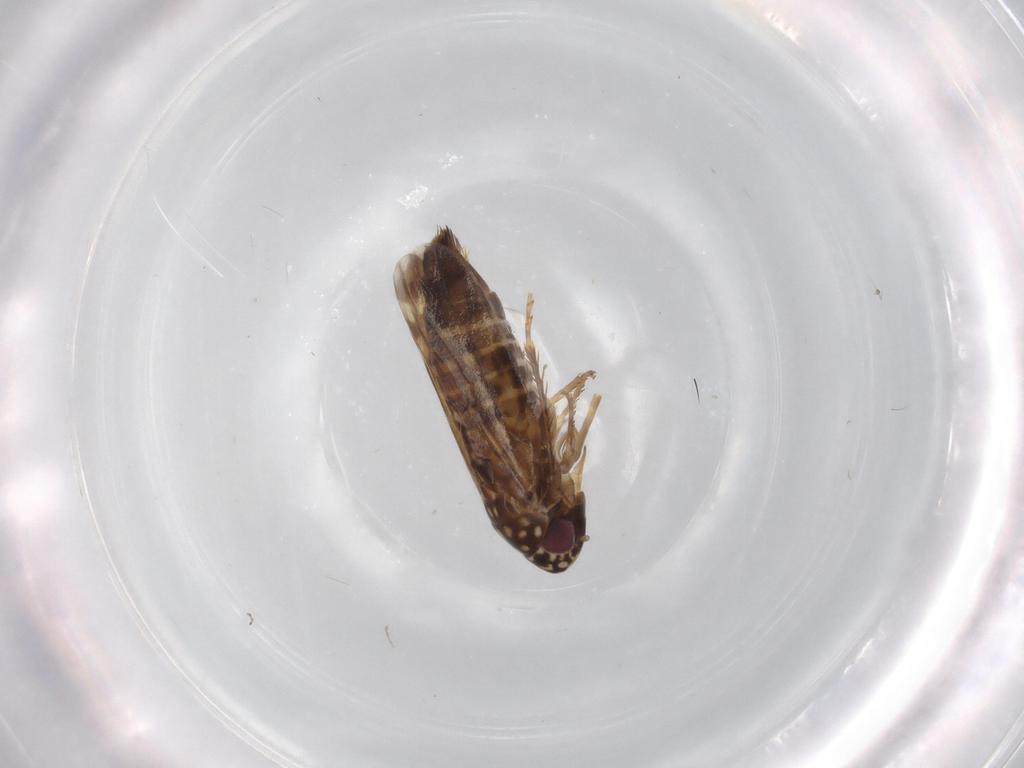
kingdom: Animalia
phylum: Arthropoda
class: Insecta
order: Hemiptera
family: Cicadellidae
